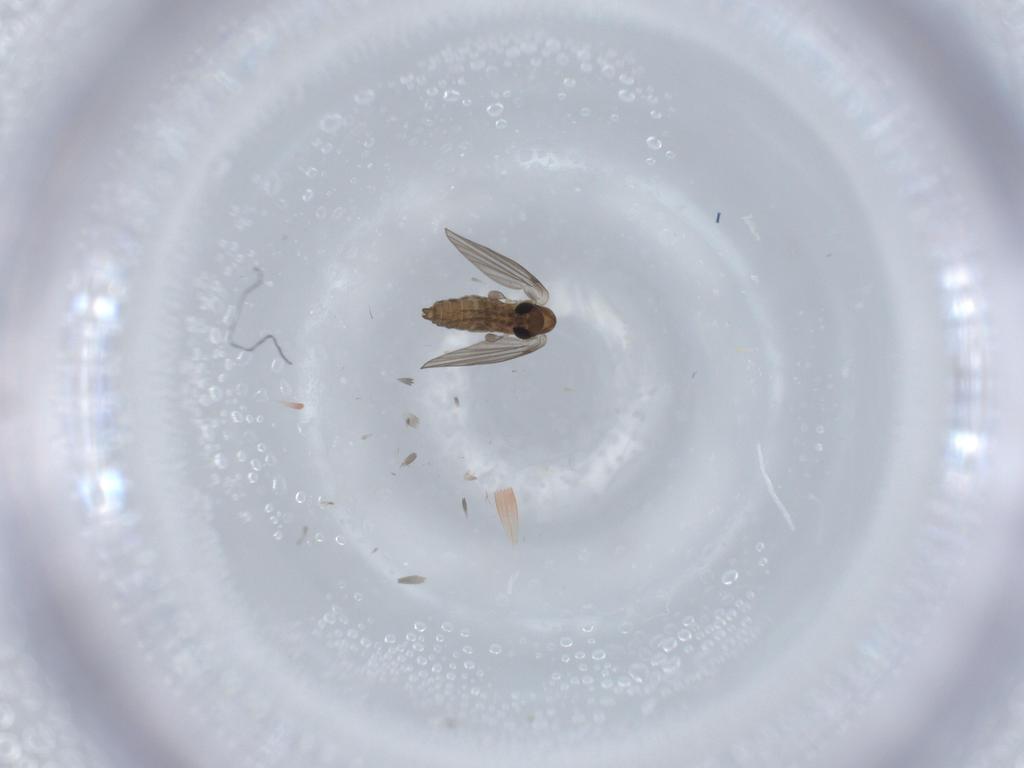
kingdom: Animalia
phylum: Arthropoda
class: Insecta
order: Diptera
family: Psychodidae
